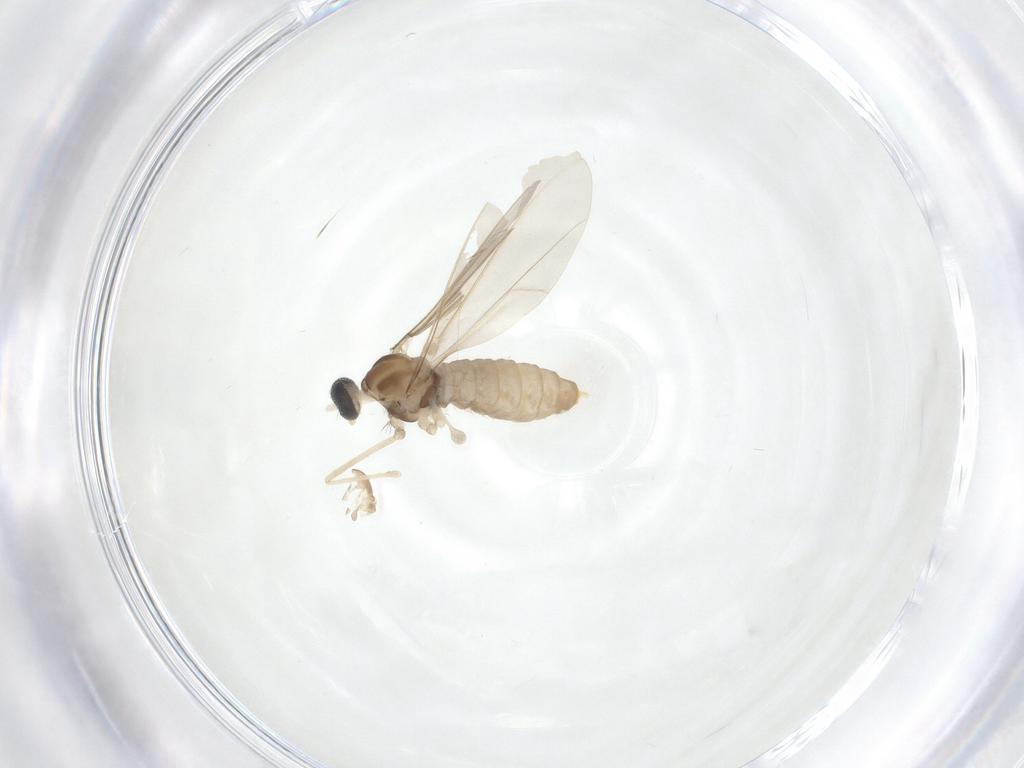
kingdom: Animalia
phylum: Arthropoda
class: Insecta
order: Diptera
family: Cecidomyiidae
